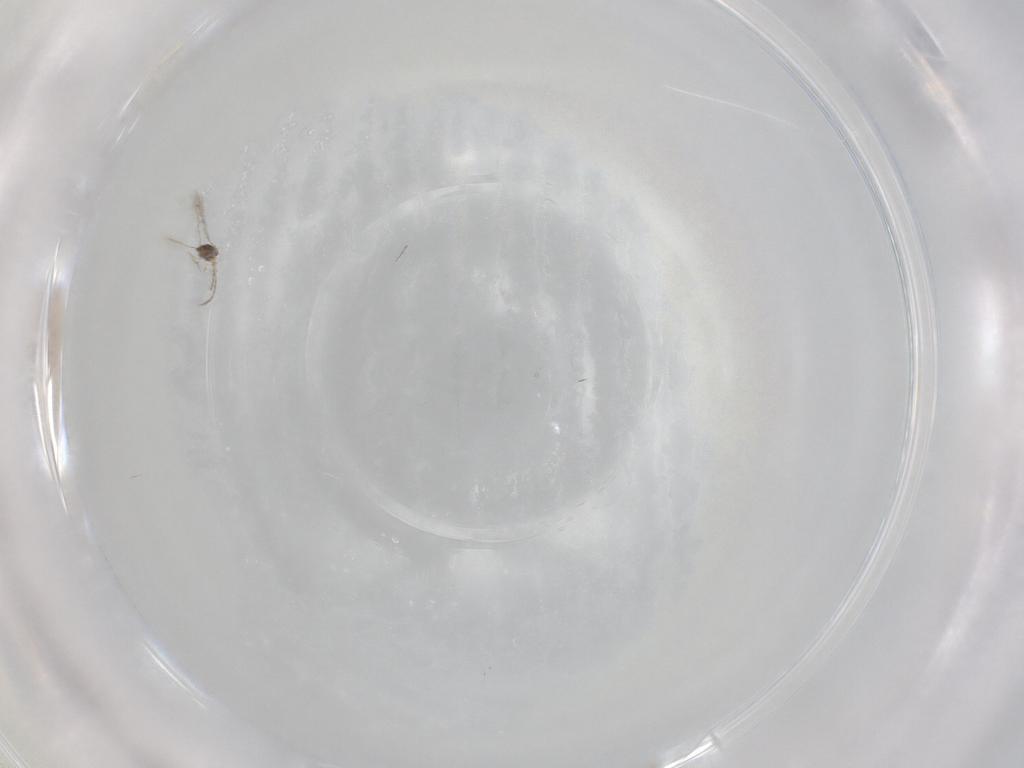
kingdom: Animalia
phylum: Arthropoda
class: Insecta
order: Hymenoptera
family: Mymaridae
